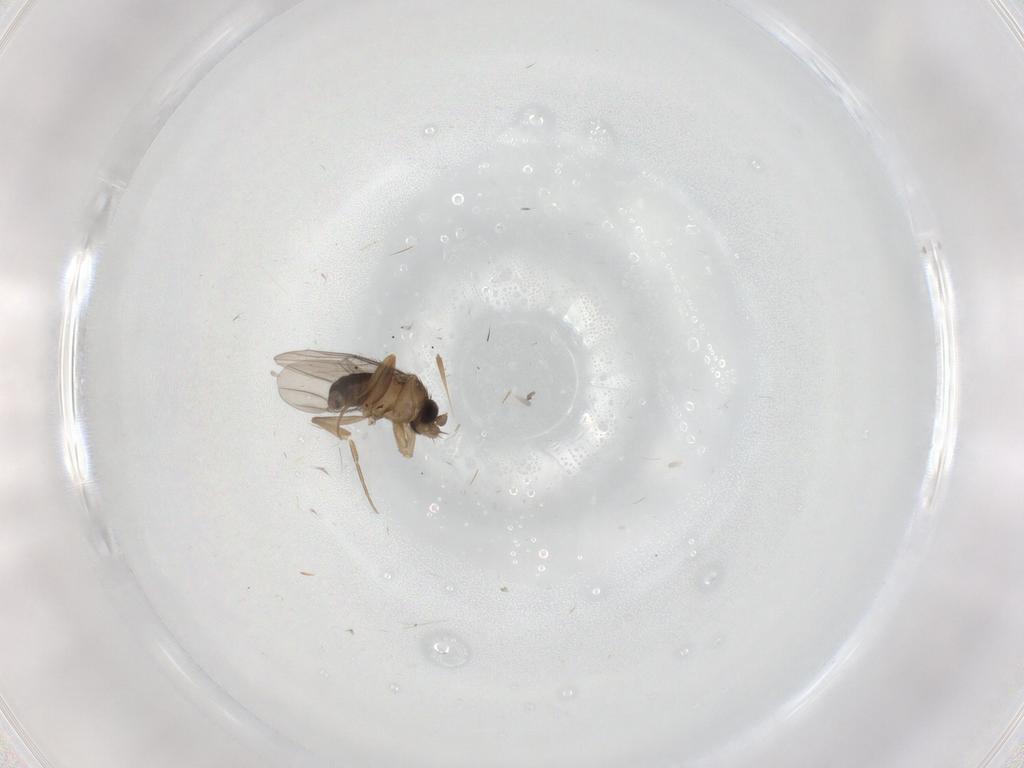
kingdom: Animalia
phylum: Arthropoda
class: Insecta
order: Diptera
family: Phoridae
